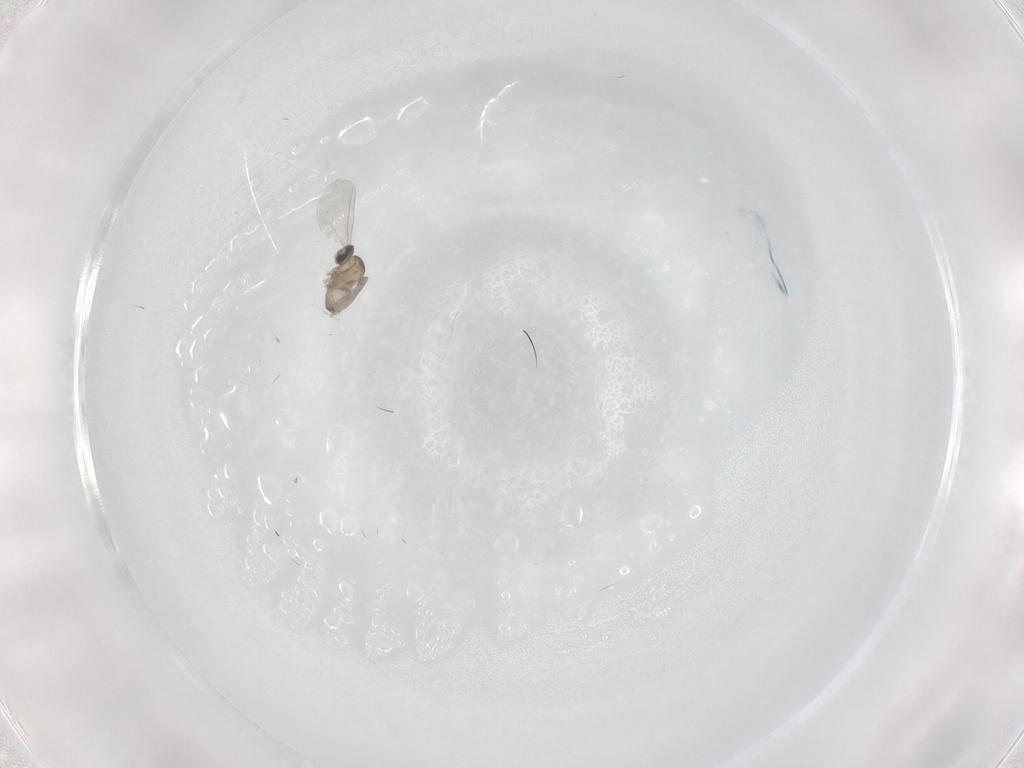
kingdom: Animalia
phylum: Arthropoda
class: Insecta
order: Diptera
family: Cecidomyiidae
